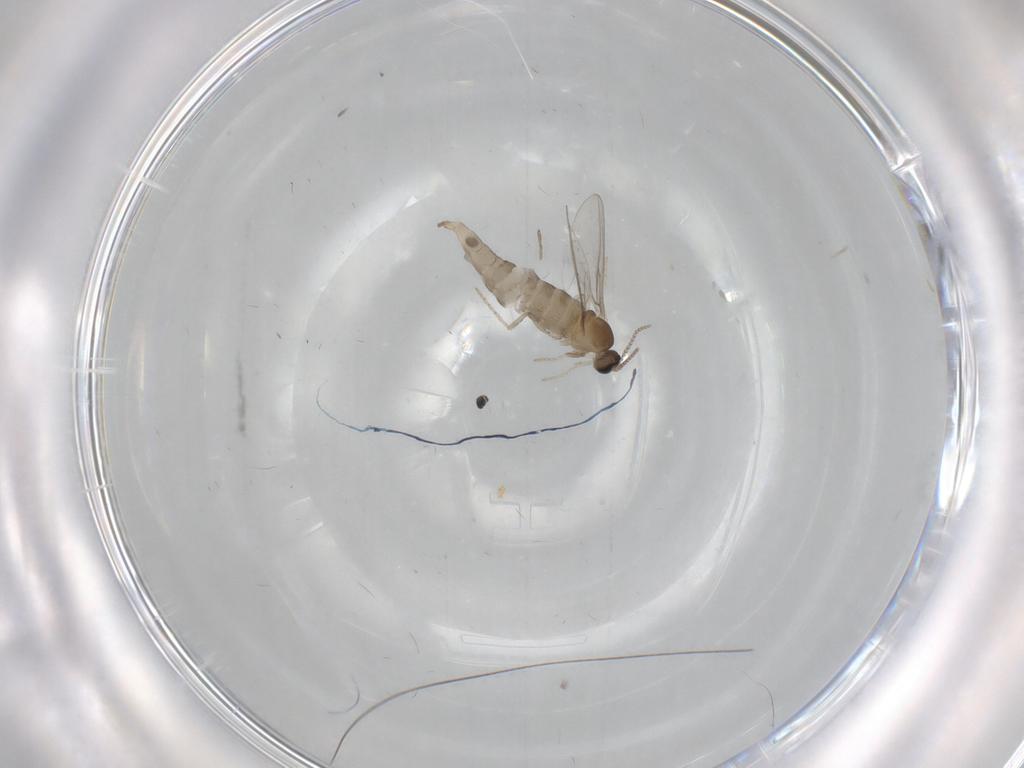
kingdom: Animalia
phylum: Arthropoda
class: Insecta
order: Diptera
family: Cecidomyiidae
